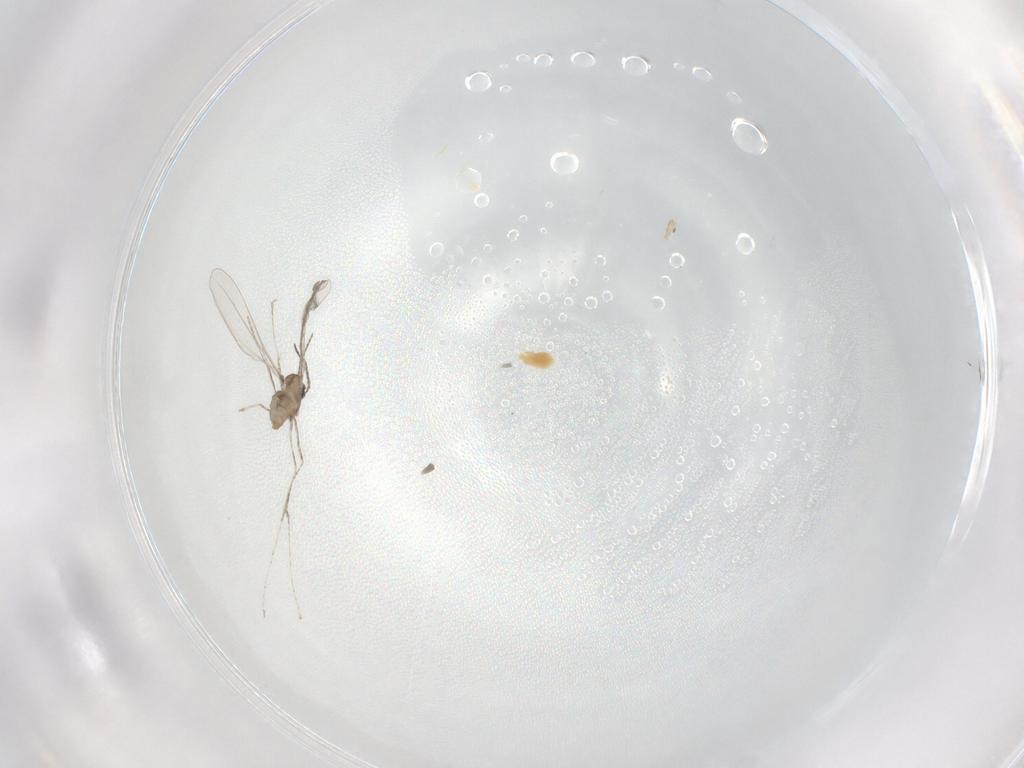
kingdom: Animalia
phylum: Arthropoda
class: Insecta
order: Diptera
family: Cecidomyiidae
